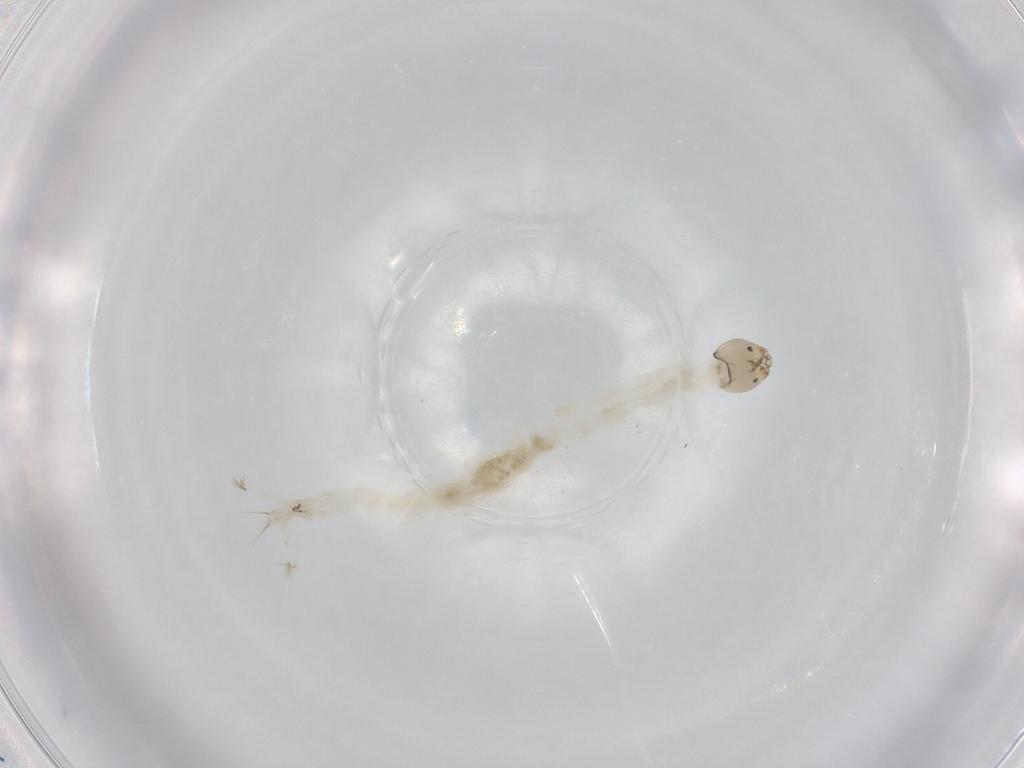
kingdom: Animalia
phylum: Arthropoda
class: Insecta
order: Diptera
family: Chironomidae
